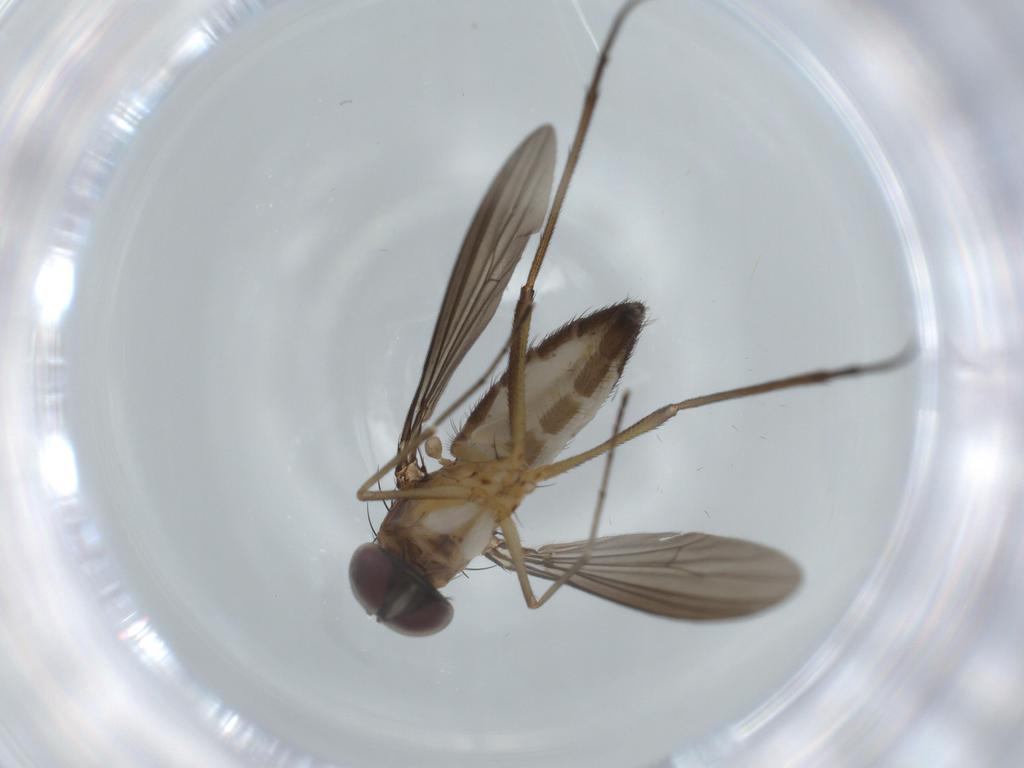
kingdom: Animalia
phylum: Arthropoda
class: Insecta
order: Diptera
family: Dolichopodidae
